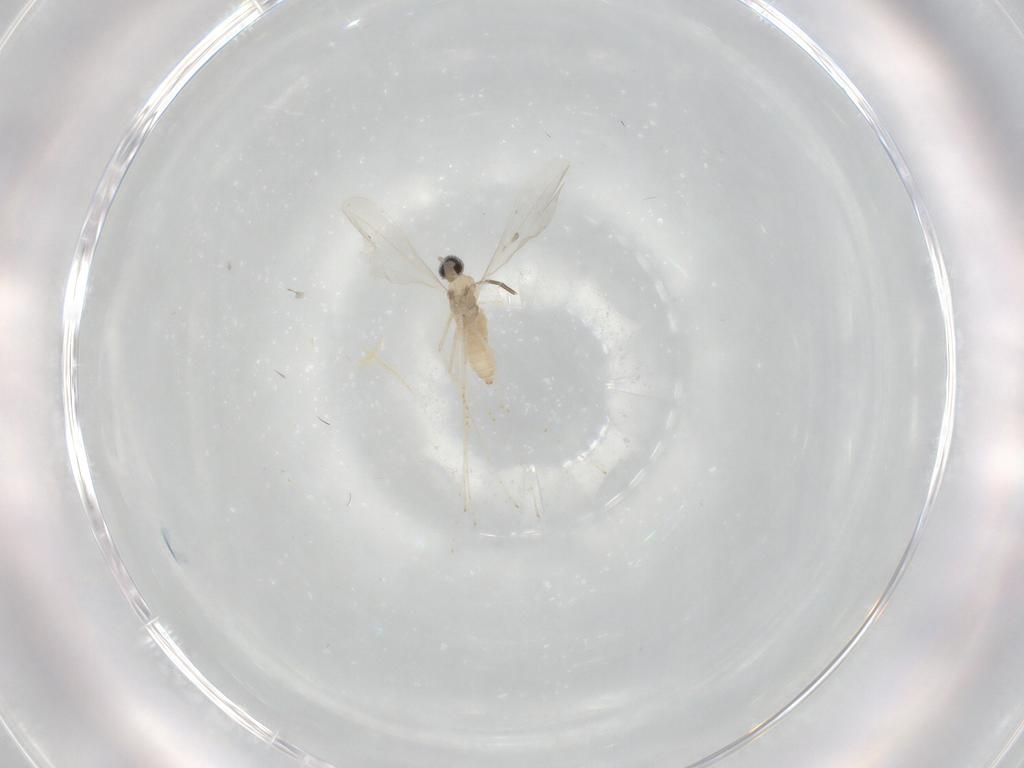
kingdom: Animalia
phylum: Arthropoda
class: Insecta
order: Diptera
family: Cecidomyiidae
